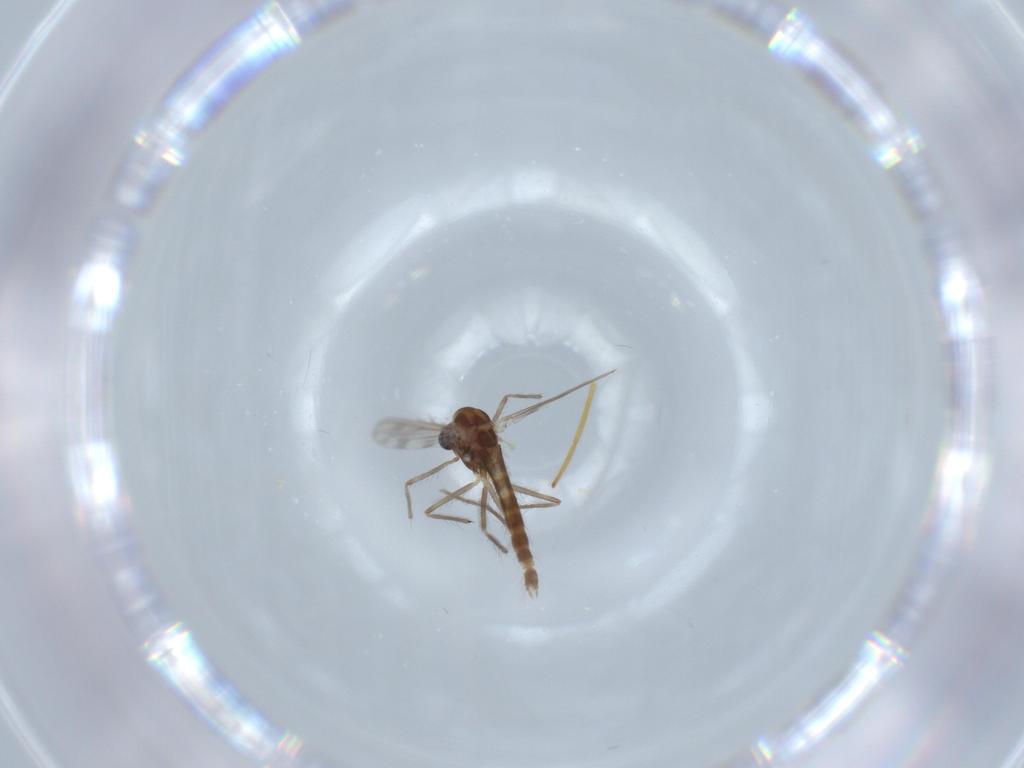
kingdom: Animalia
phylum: Arthropoda
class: Insecta
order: Diptera
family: Chironomidae
